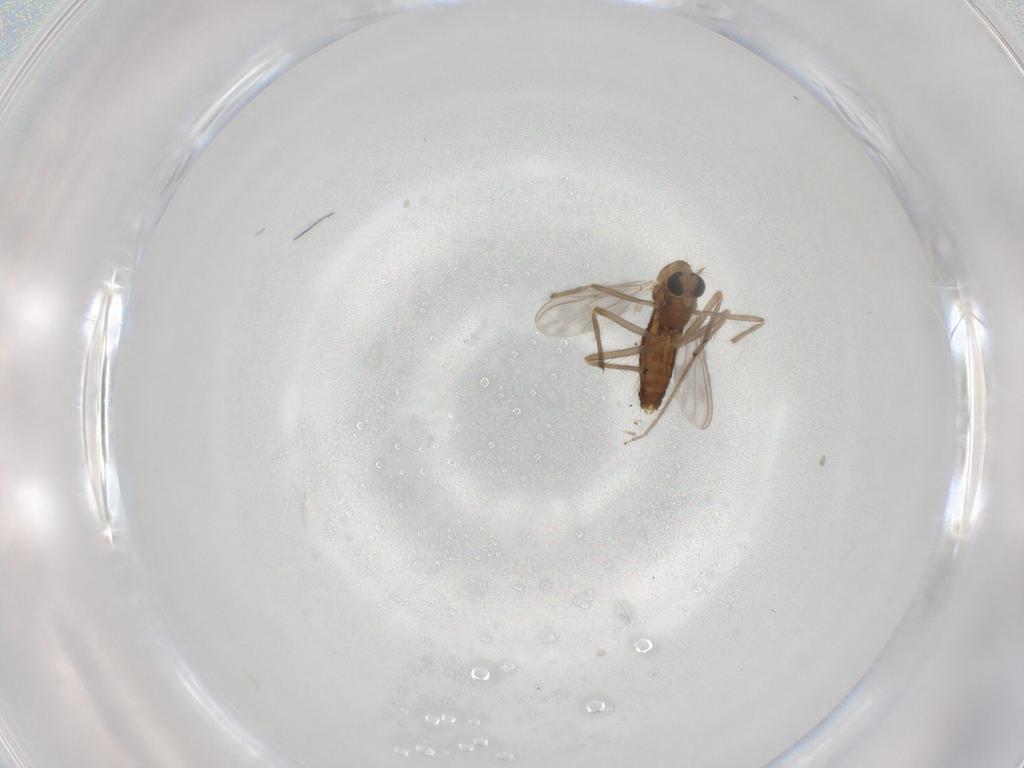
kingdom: Animalia
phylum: Arthropoda
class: Insecta
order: Diptera
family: Chironomidae
